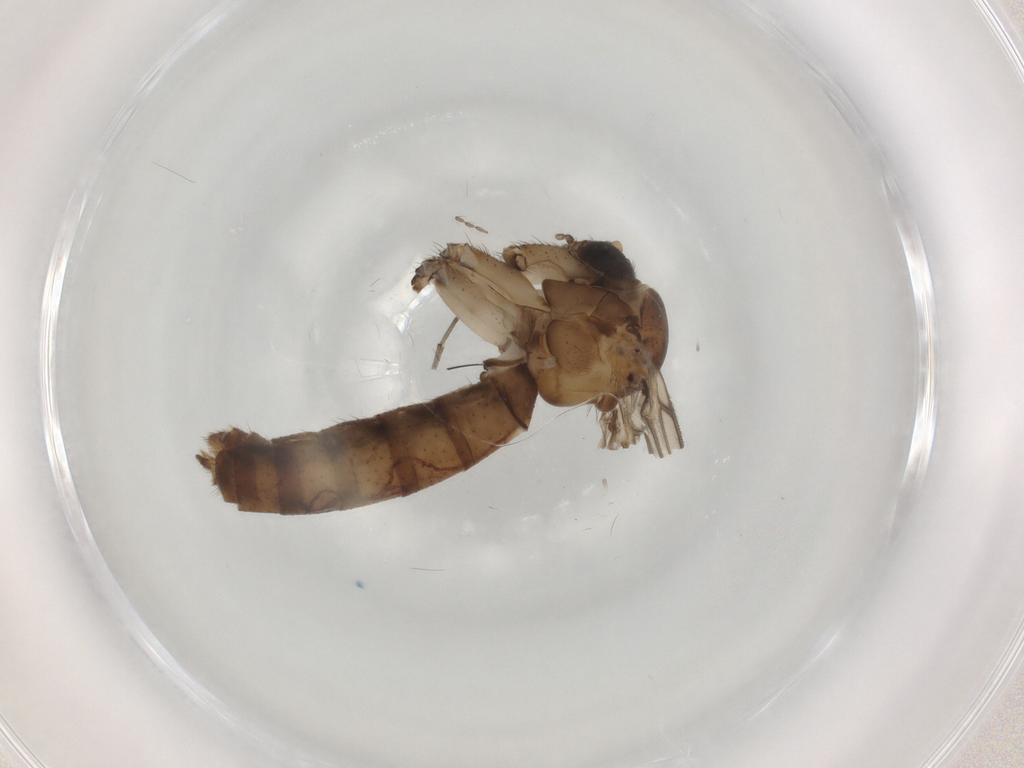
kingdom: Animalia
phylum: Arthropoda
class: Insecta
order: Diptera
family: Mycetophilidae
